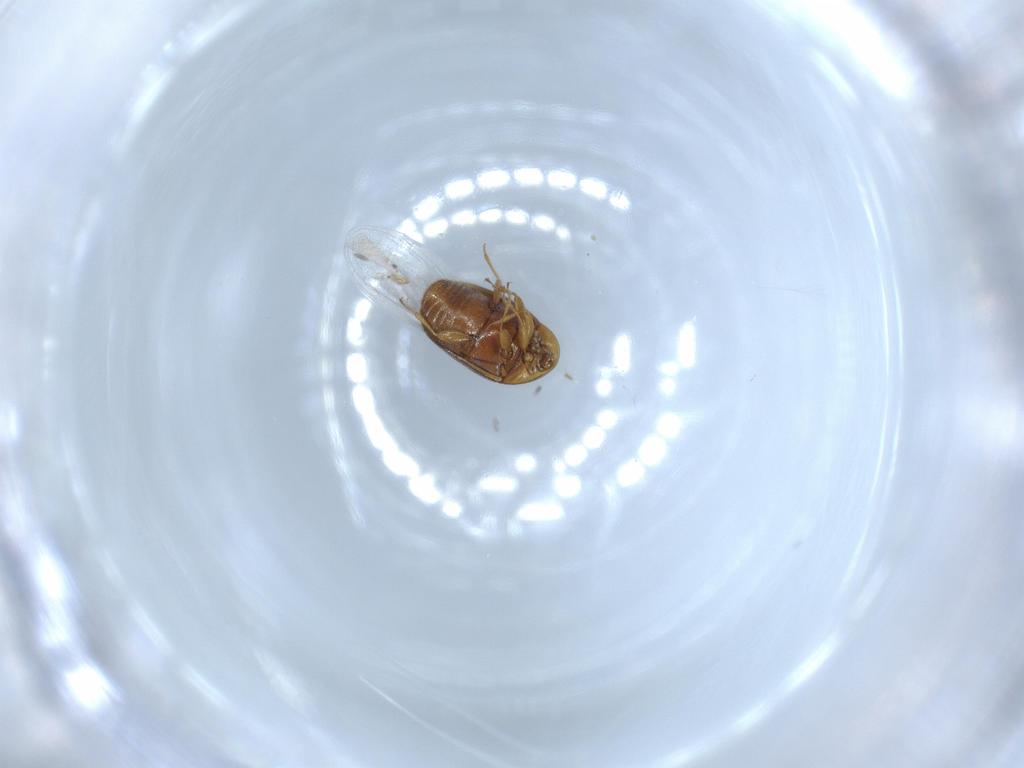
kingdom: Animalia
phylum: Arthropoda
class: Insecta
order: Coleoptera
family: Corylophidae
